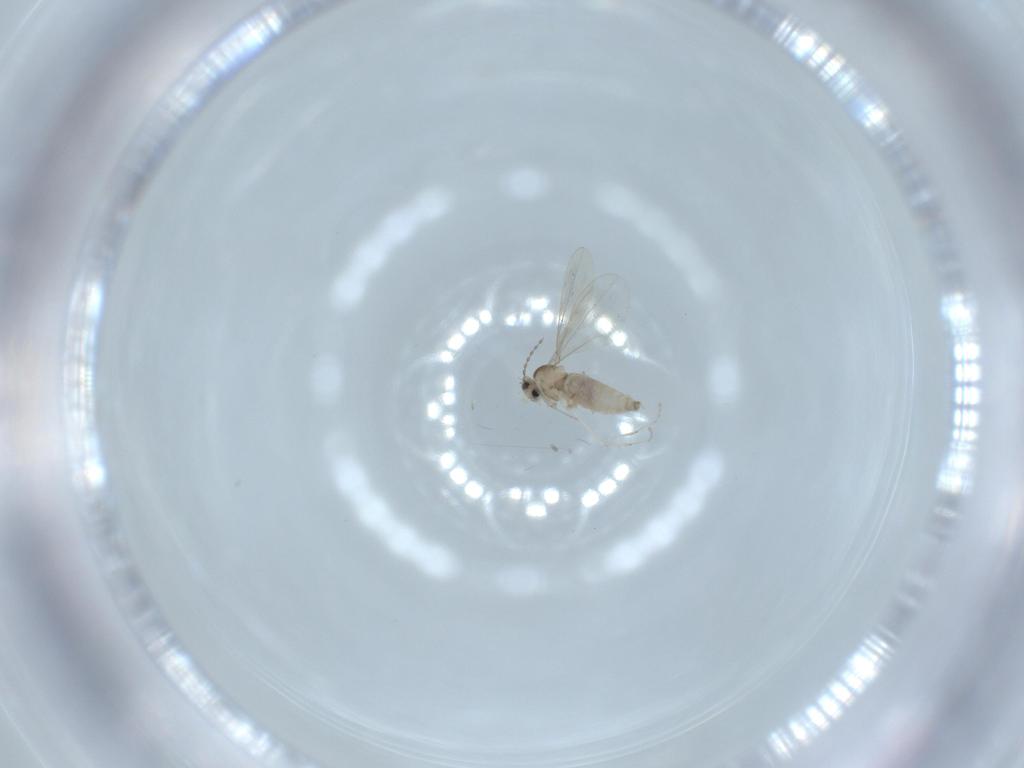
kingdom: Animalia
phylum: Arthropoda
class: Insecta
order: Diptera
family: Ceratopogonidae
